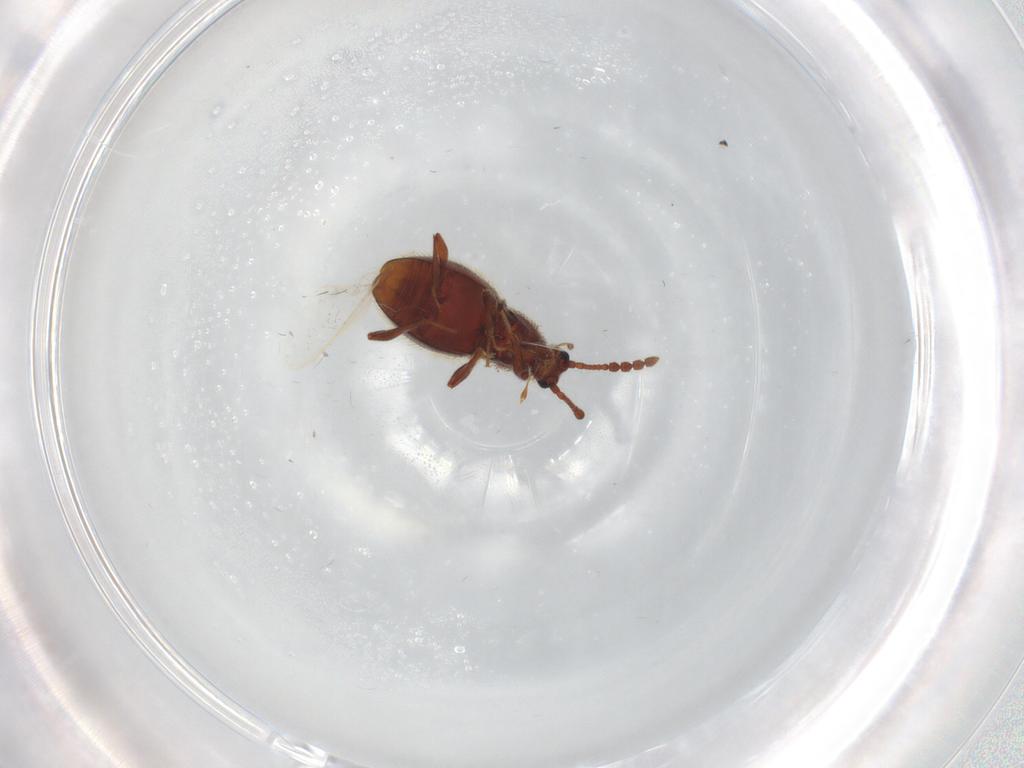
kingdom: Animalia
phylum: Arthropoda
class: Insecta
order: Coleoptera
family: Staphylinidae
